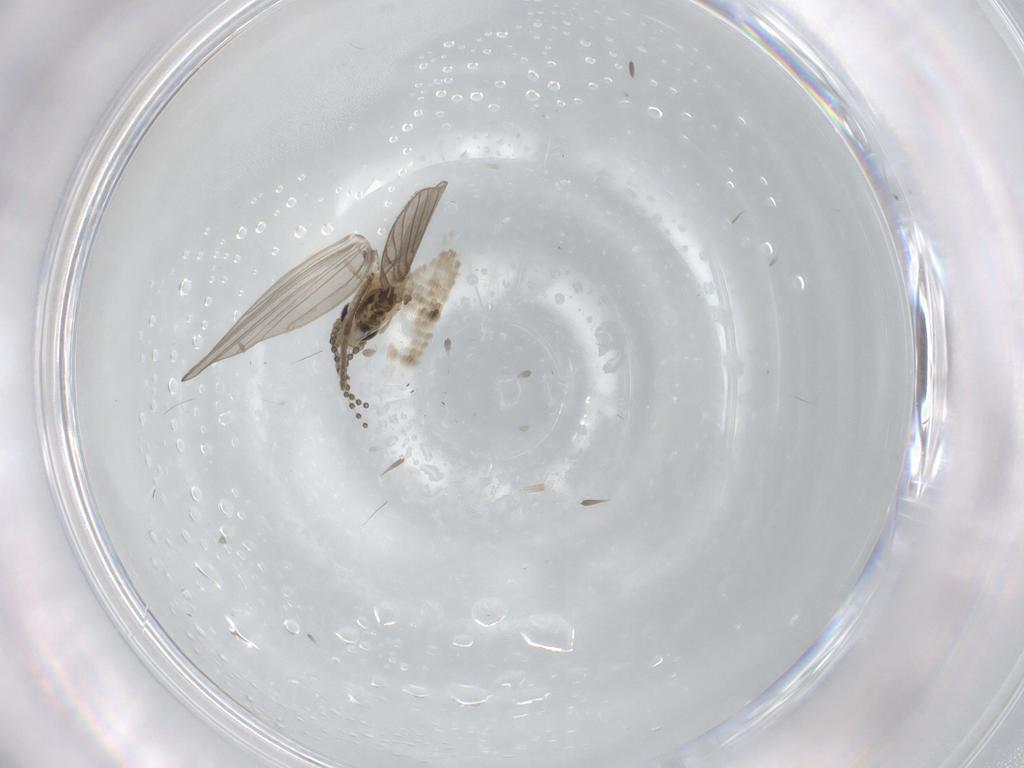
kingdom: Animalia
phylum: Arthropoda
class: Insecta
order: Diptera
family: Psychodidae
